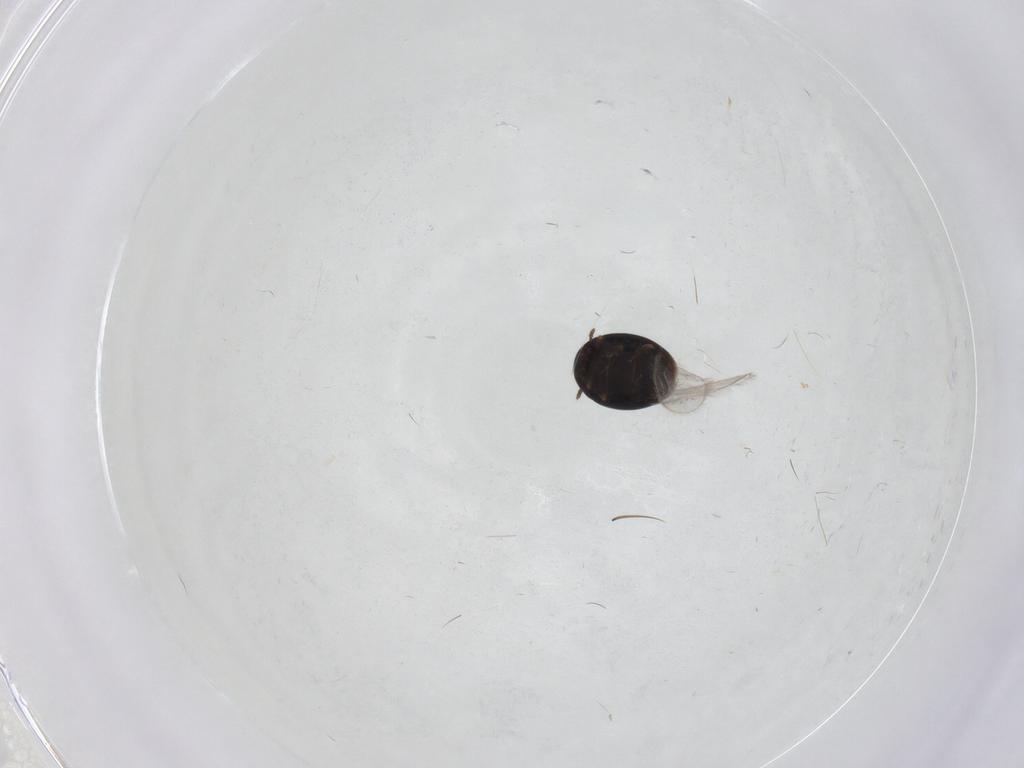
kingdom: Animalia
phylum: Arthropoda
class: Insecta
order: Coleoptera
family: Corylophidae
